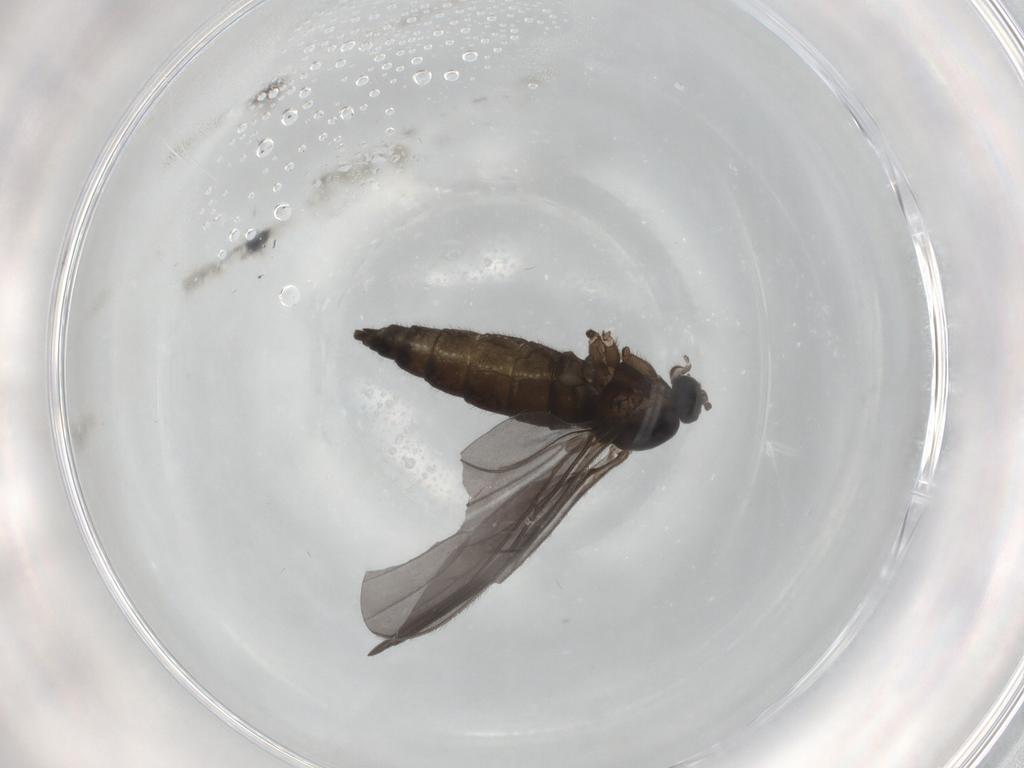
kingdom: Animalia
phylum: Arthropoda
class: Insecta
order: Diptera
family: Sciaridae
